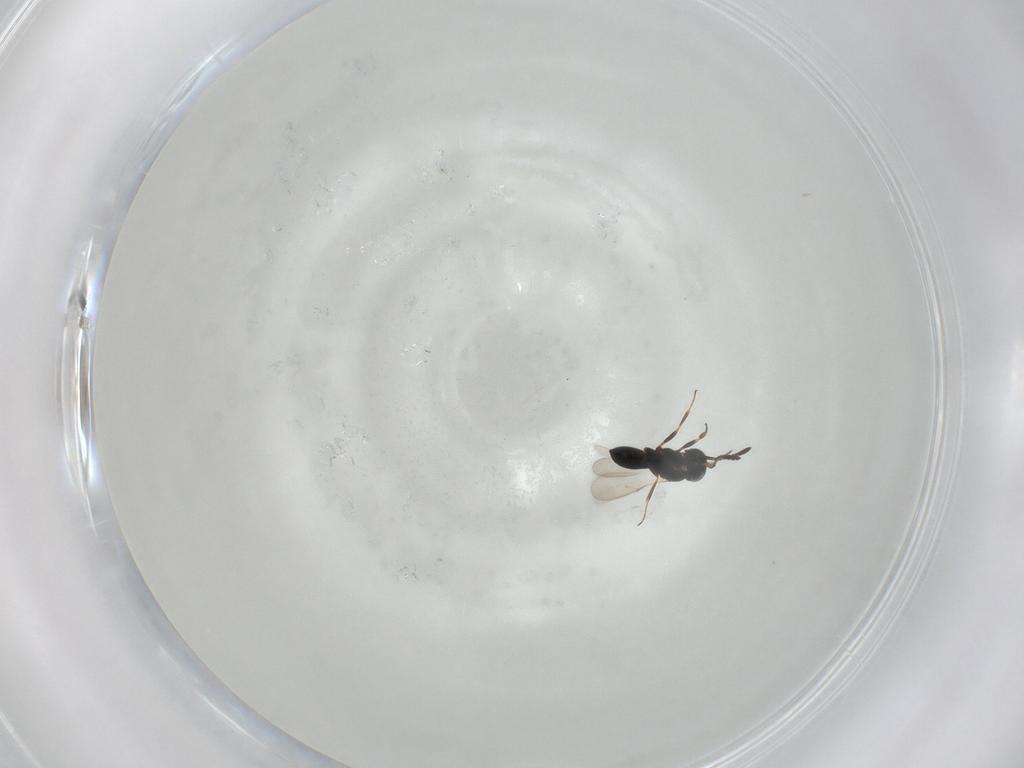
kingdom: Animalia
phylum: Arthropoda
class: Insecta
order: Hymenoptera
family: Scelionidae
